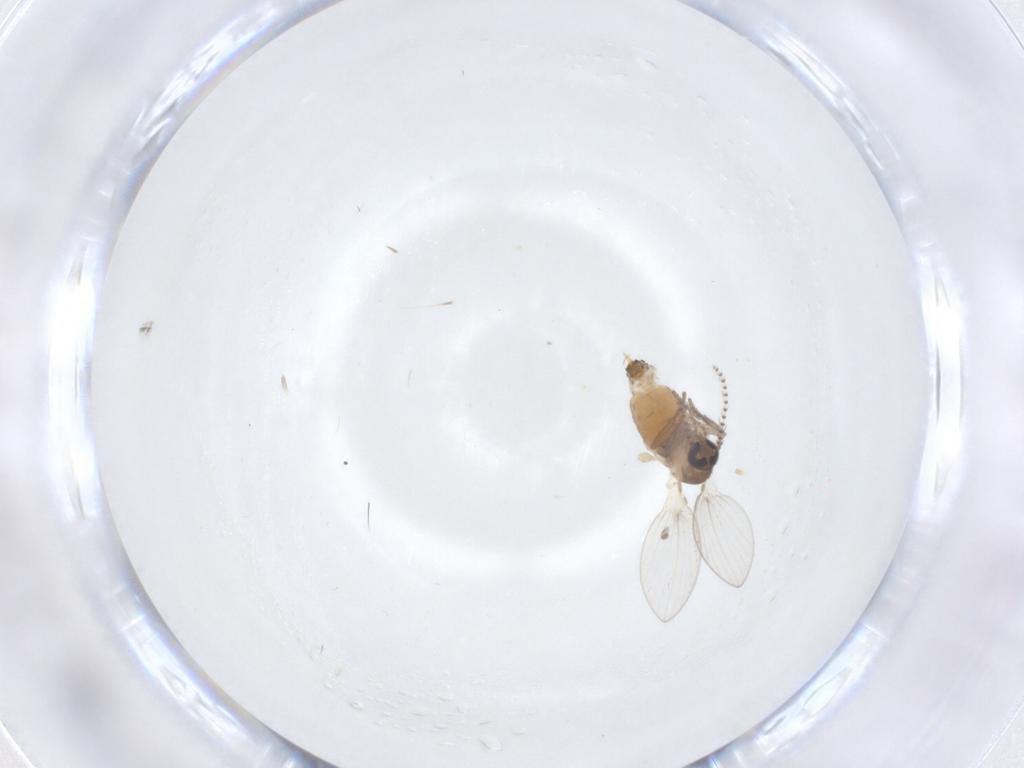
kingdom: Animalia
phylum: Arthropoda
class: Insecta
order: Diptera
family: Psychodidae
